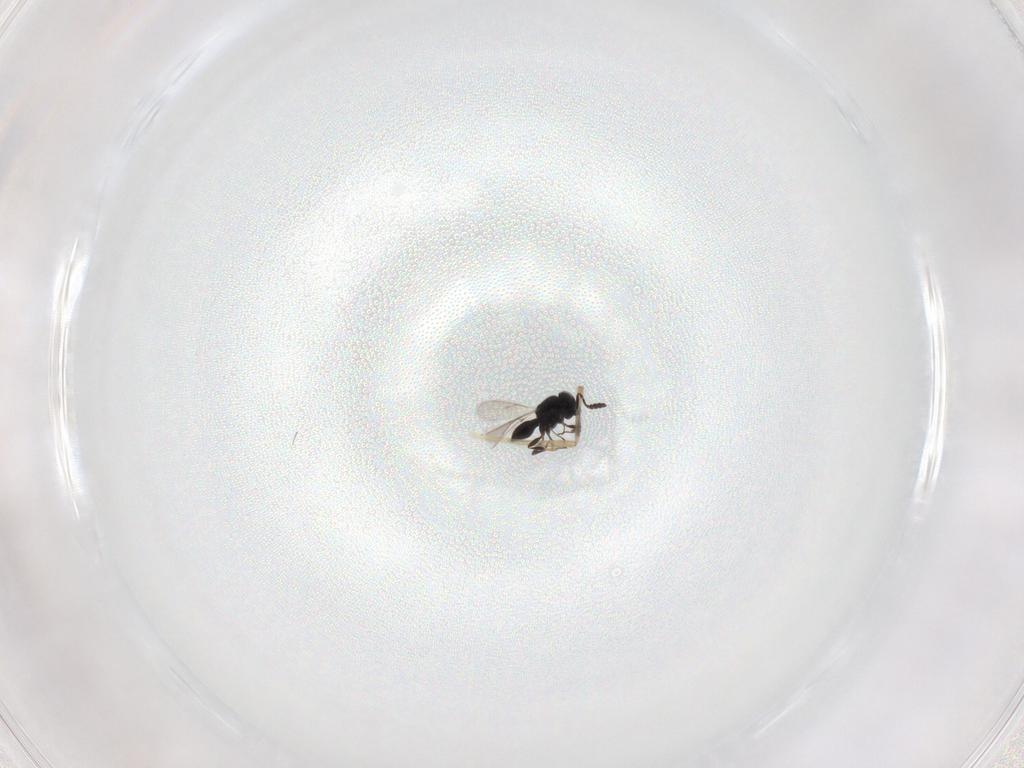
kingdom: Animalia
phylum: Arthropoda
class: Insecta
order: Hymenoptera
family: Scelionidae
